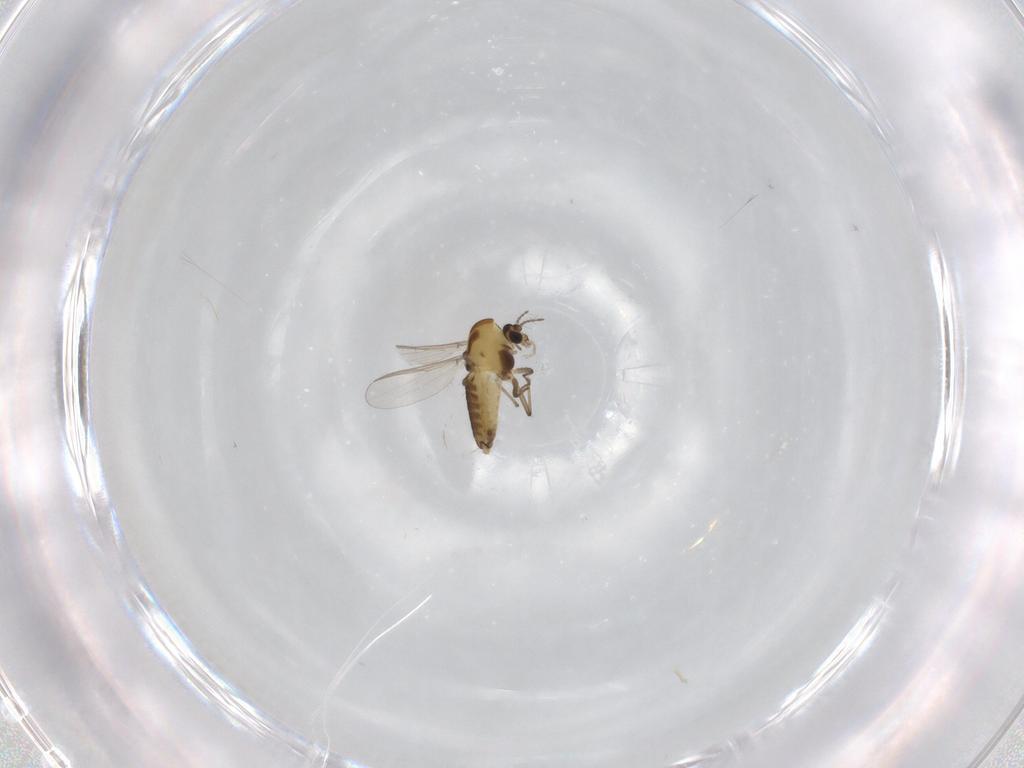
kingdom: Animalia
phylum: Arthropoda
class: Insecta
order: Diptera
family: Chironomidae
